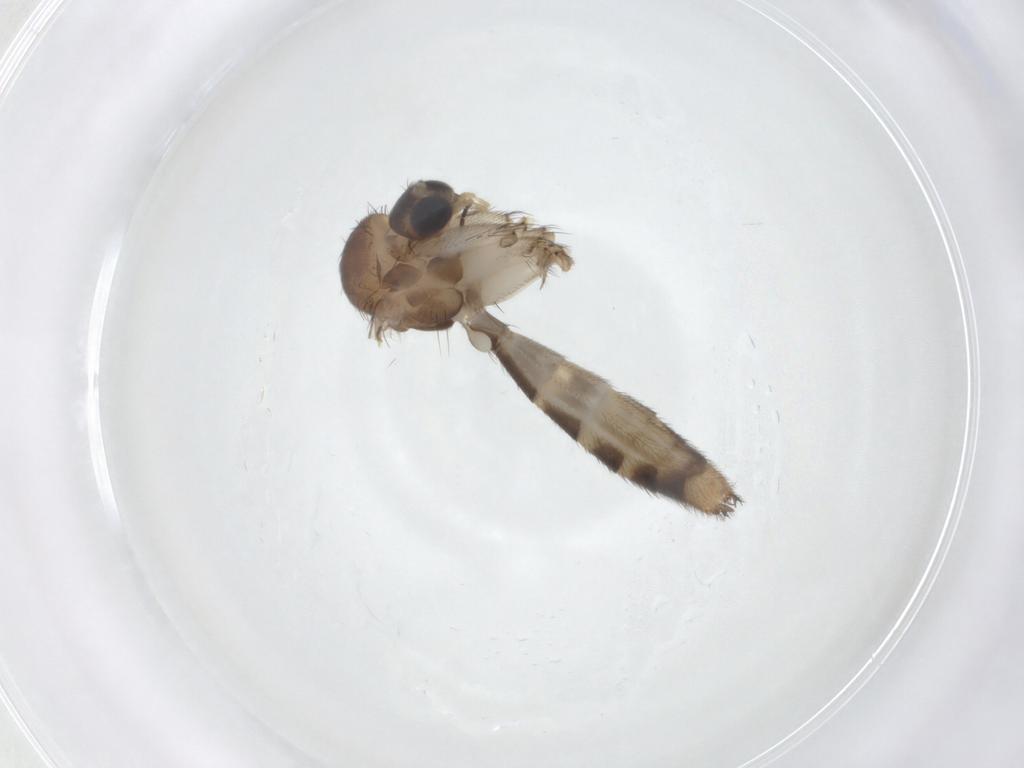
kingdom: Animalia
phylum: Arthropoda
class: Insecta
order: Diptera
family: Mycetophilidae
